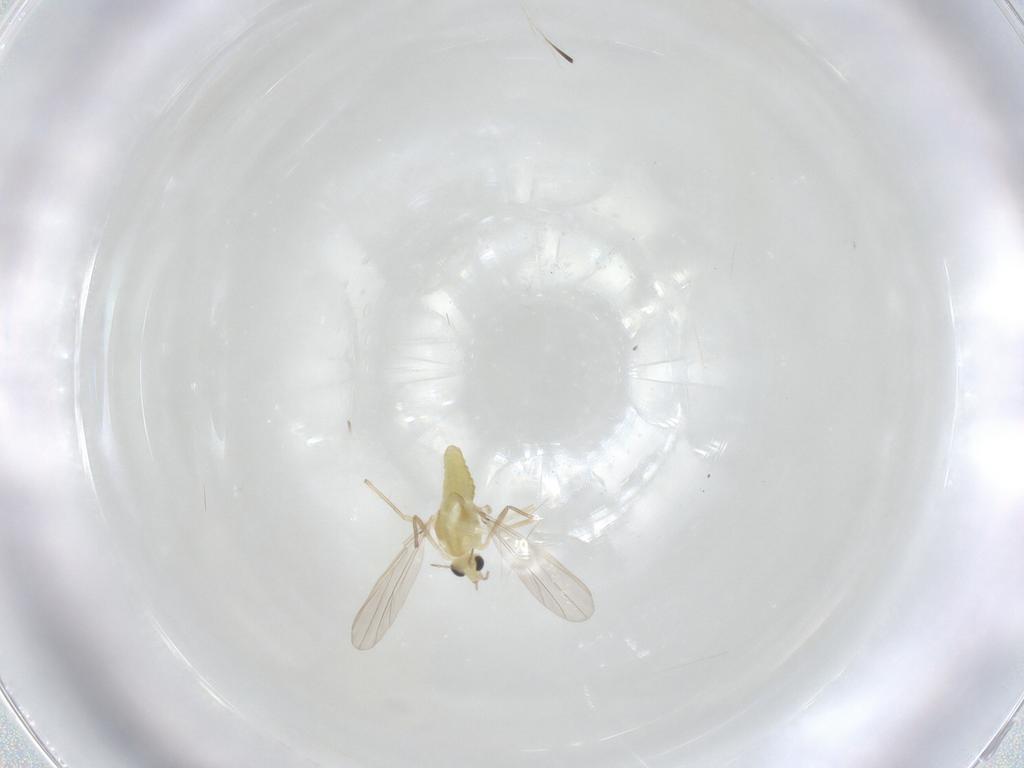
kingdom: Animalia
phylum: Arthropoda
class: Insecta
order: Diptera
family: Chironomidae
